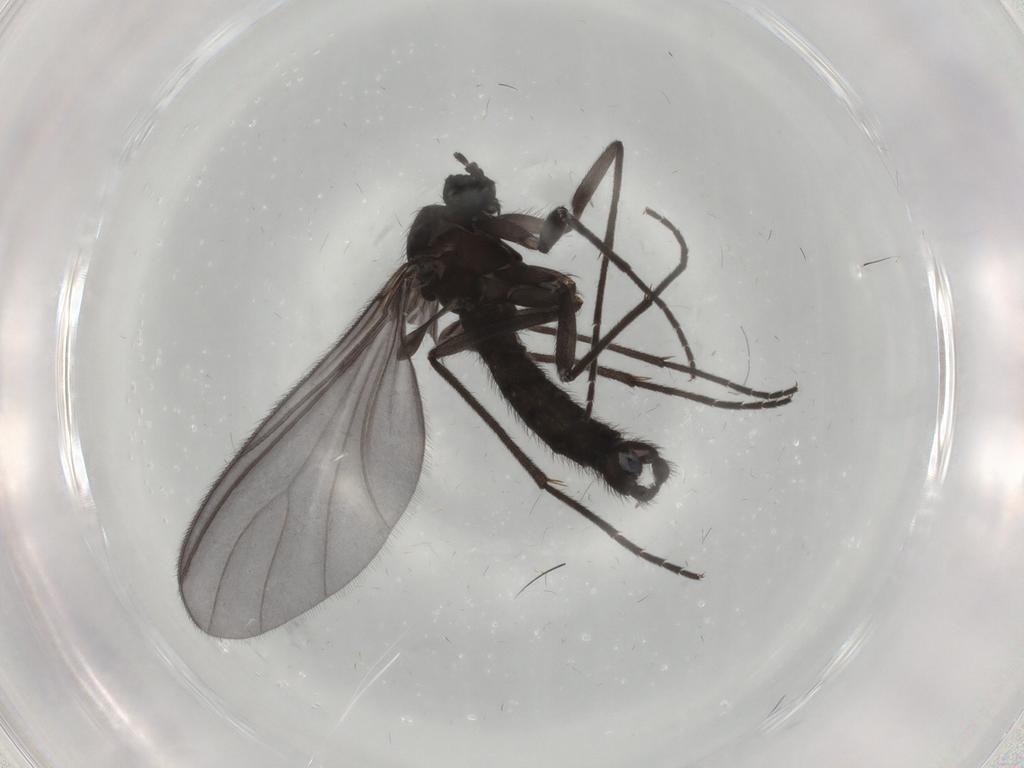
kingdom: Animalia
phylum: Arthropoda
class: Insecta
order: Diptera
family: Sciaridae
